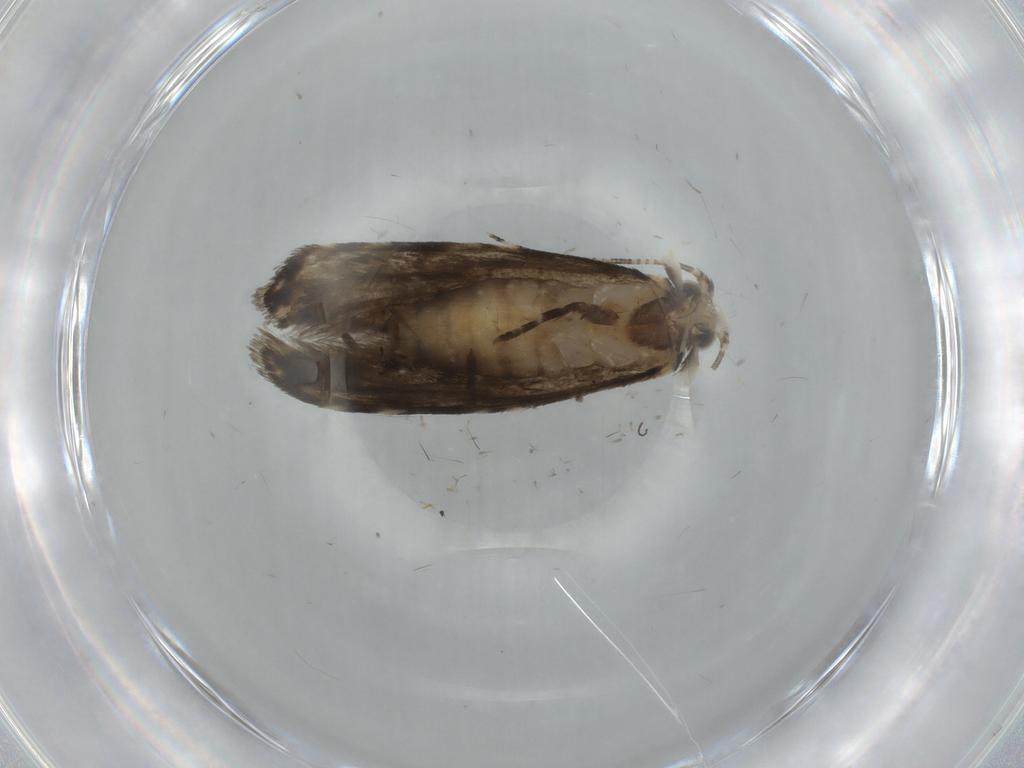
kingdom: Animalia
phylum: Arthropoda
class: Insecta
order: Lepidoptera
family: Tineidae
